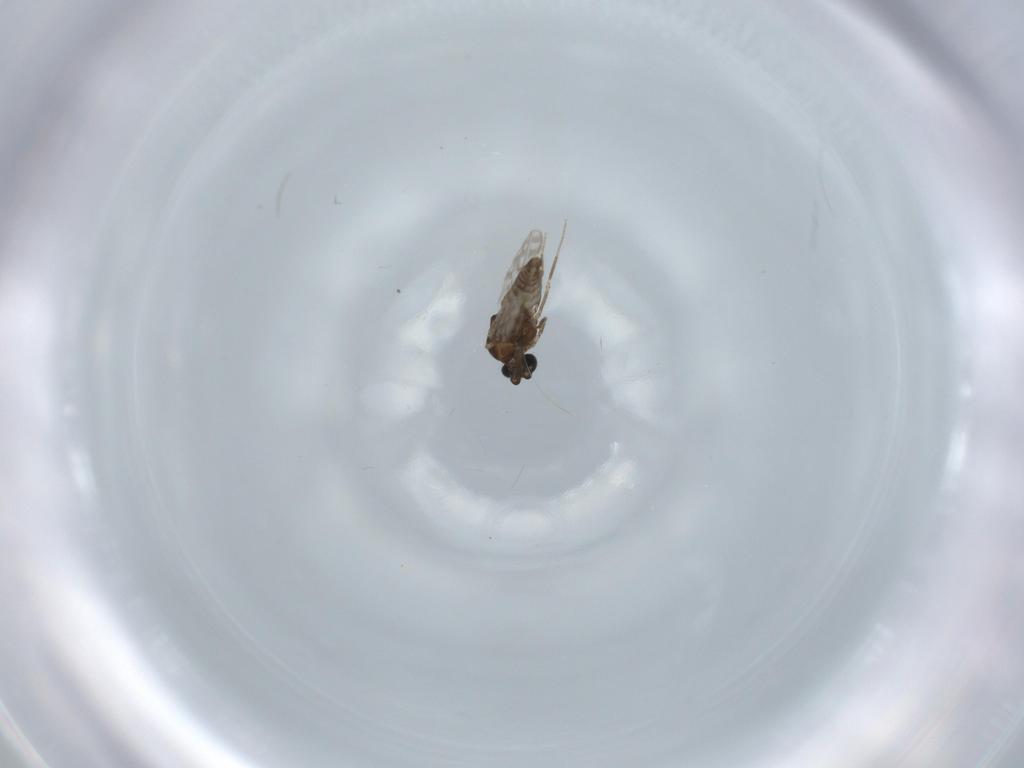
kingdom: Animalia
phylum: Arthropoda
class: Insecta
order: Diptera
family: Ceratopogonidae
